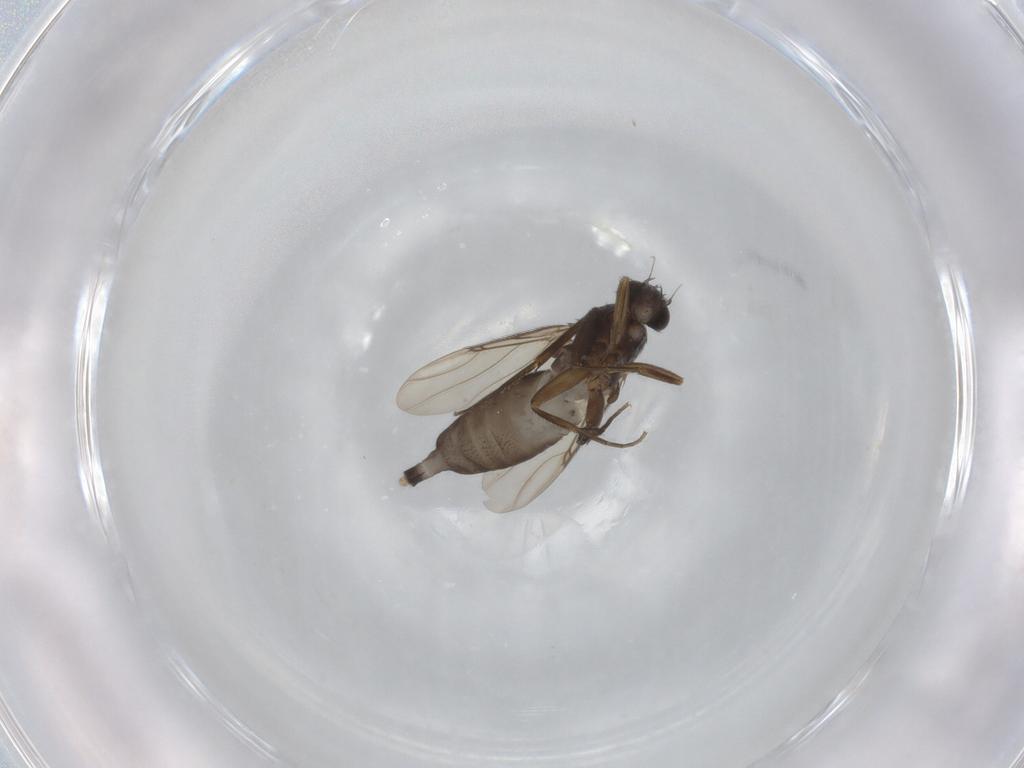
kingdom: Animalia
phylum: Arthropoda
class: Insecta
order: Diptera
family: Phoridae
